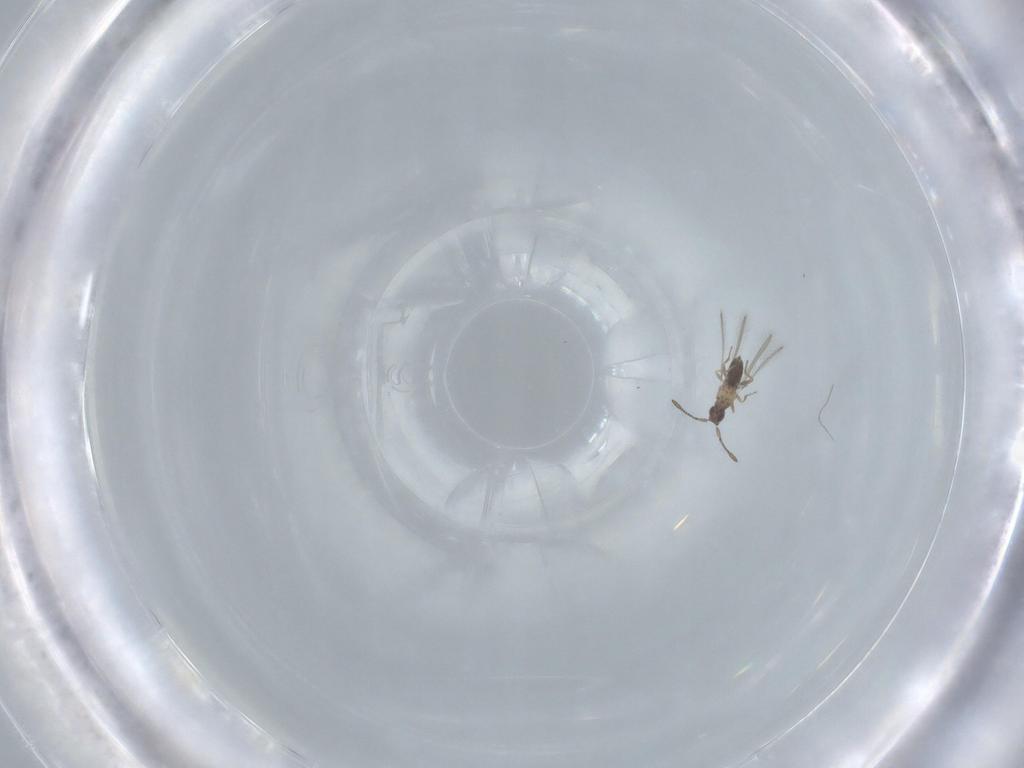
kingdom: Animalia
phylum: Arthropoda
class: Insecta
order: Hymenoptera
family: Mymaridae
